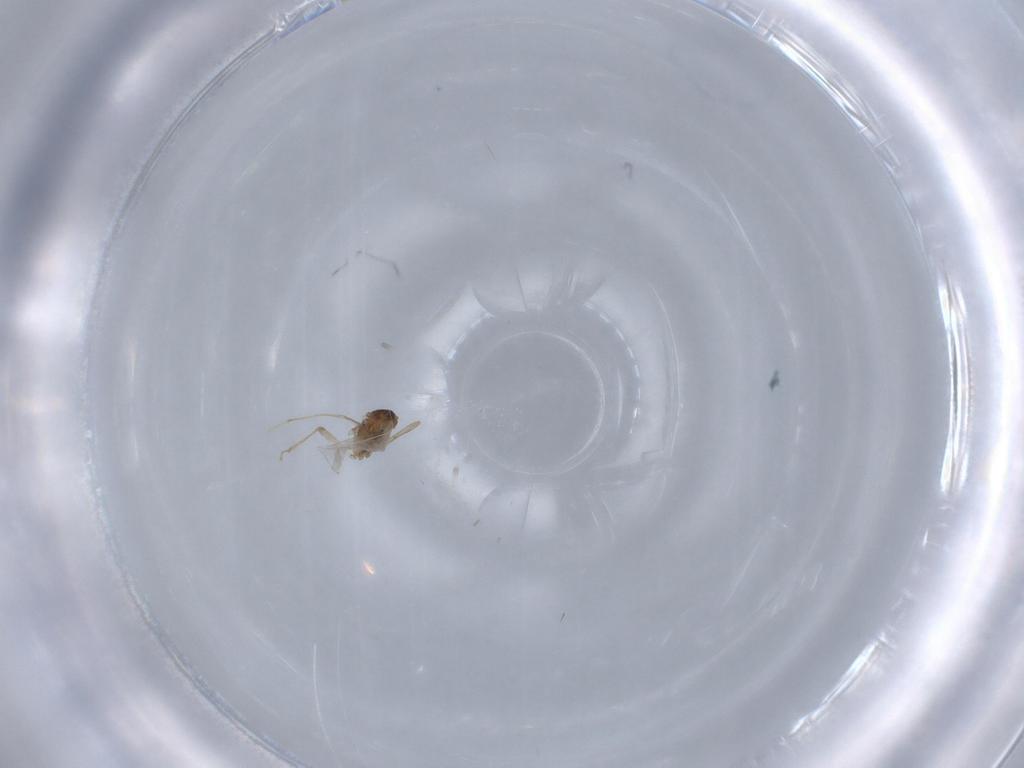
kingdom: Animalia
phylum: Arthropoda
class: Insecta
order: Diptera
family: Cecidomyiidae
